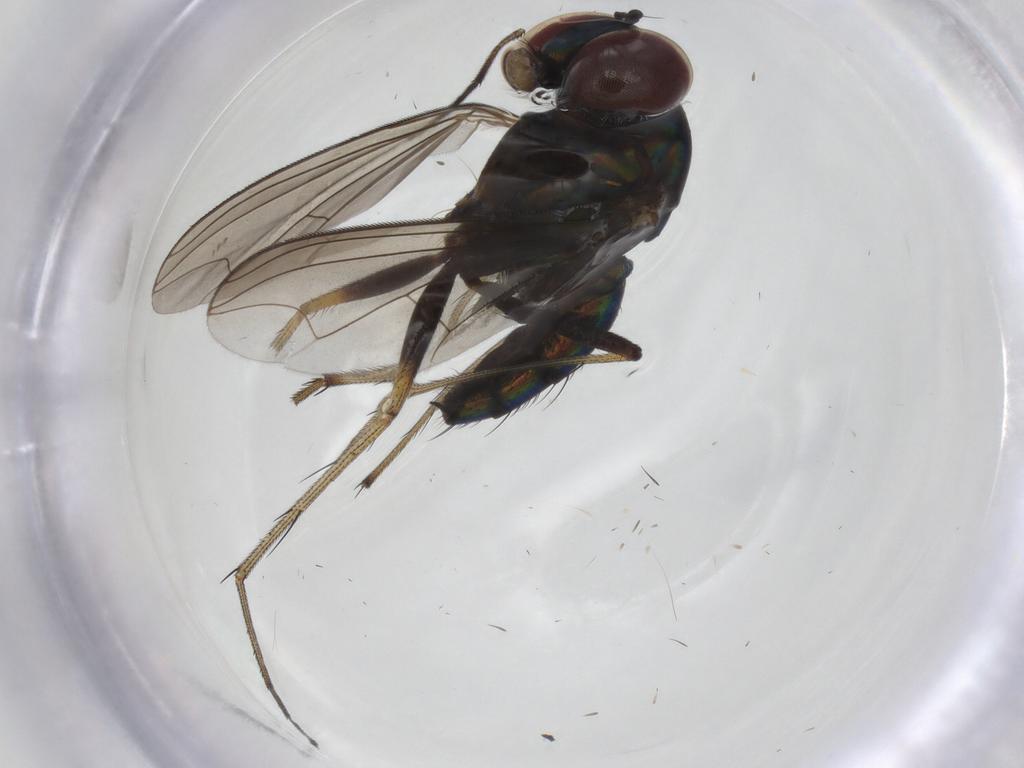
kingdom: Animalia
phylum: Arthropoda
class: Insecta
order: Diptera
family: Dolichopodidae
